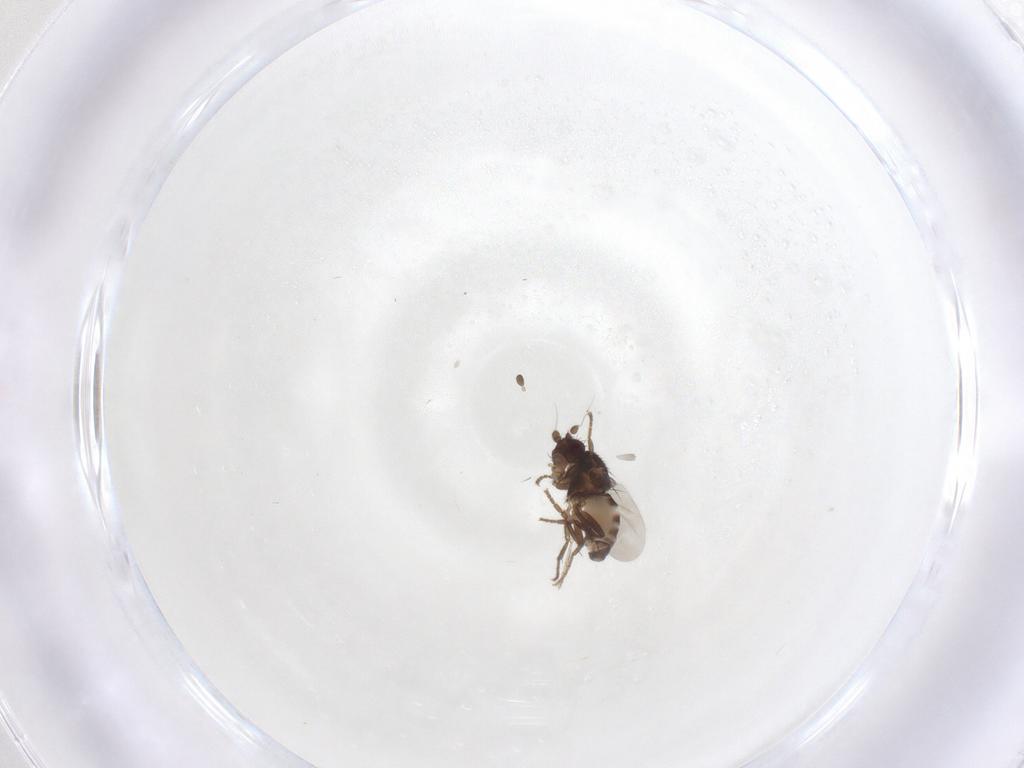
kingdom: Animalia
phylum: Arthropoda
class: Insecta
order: Diptera
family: Sphaeroceridae
